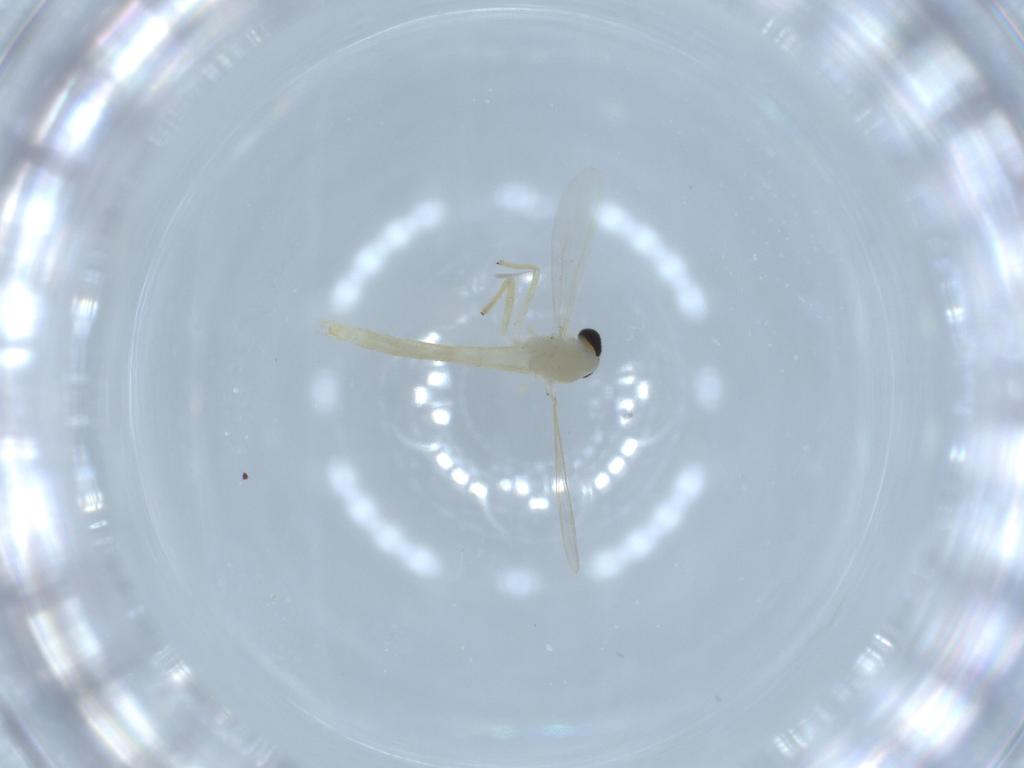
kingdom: Animalia
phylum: Arthropoda
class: Insecta
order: Diptera
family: Chironomidae
